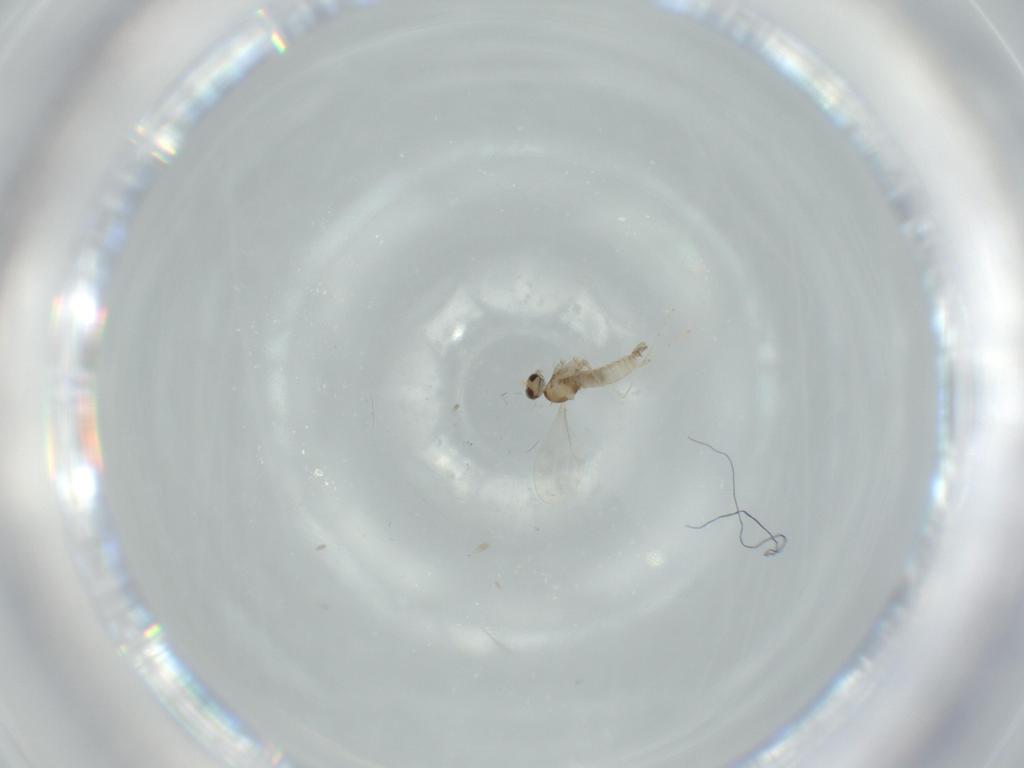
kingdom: Animalia
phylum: Arthropoda
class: Insecta
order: Diptera
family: Cecidomyiidae
